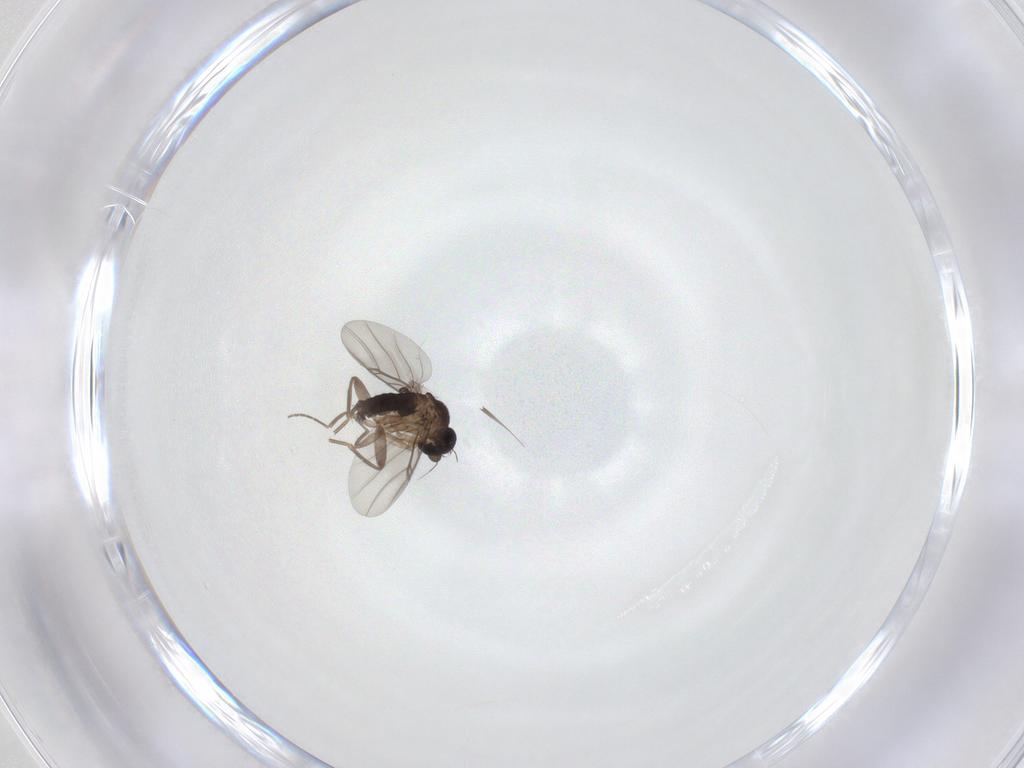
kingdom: Animalia
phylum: Arthropoda
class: Insecta
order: Diptera
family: Phoridae
